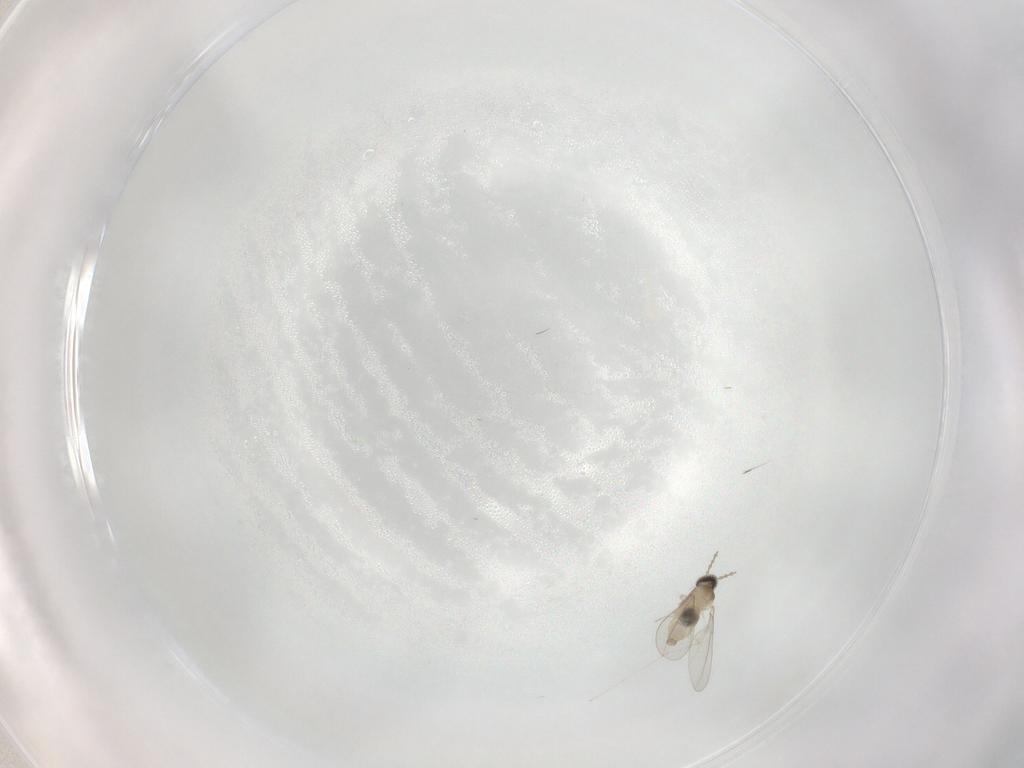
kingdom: Animalia
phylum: Arthropoda
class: Insecta
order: Diptera
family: Cecidomyiidae
